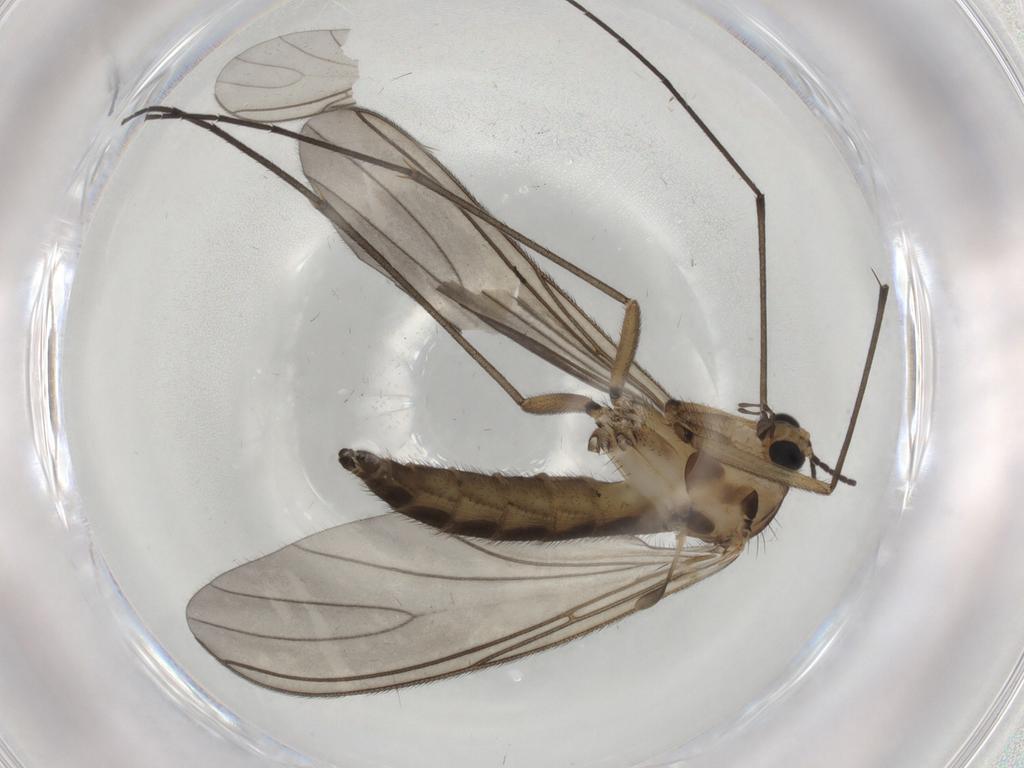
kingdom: Animalia
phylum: Arthropoda
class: Insecta
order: Diptera
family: Sciaridae
